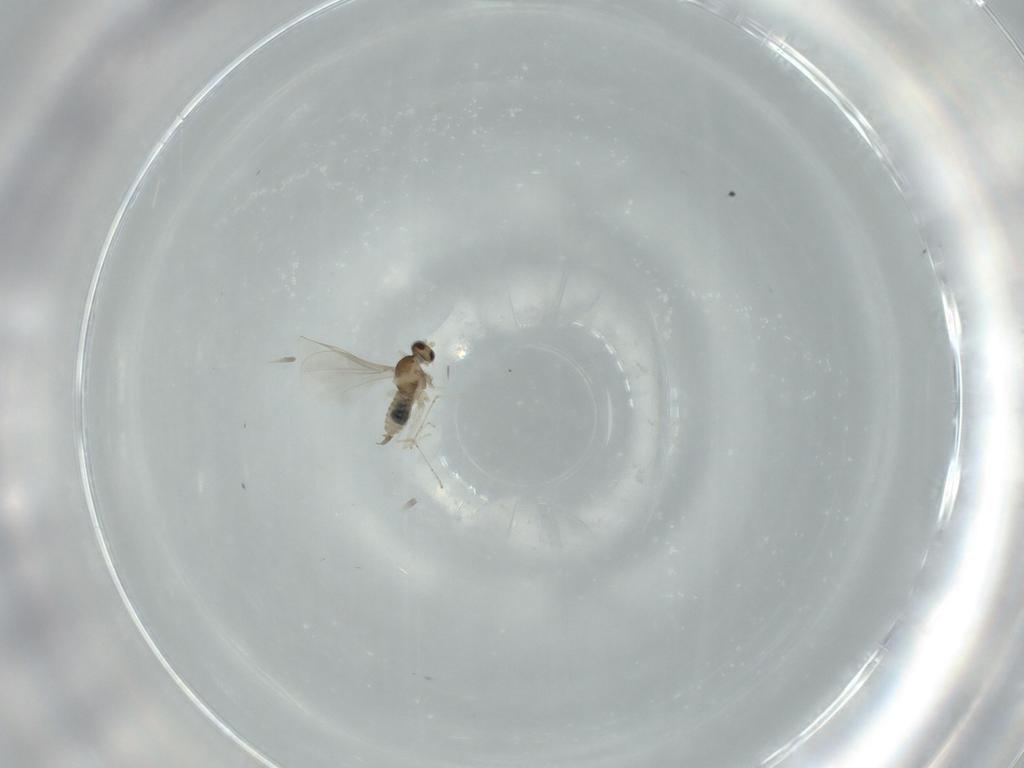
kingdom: Animalia
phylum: Arthropoda
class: Insecta
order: Diptera
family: Cecidomyiidae
